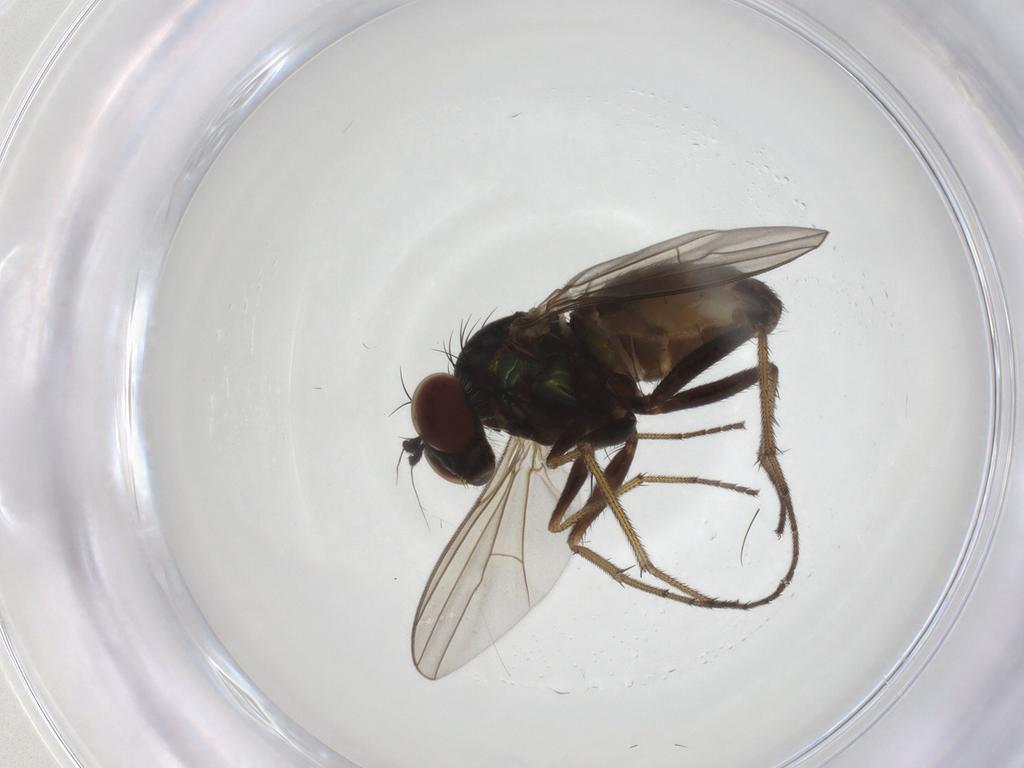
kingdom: Animalia
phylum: Arthropoda
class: Insecta
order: Diptera
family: Dolichopodidae
